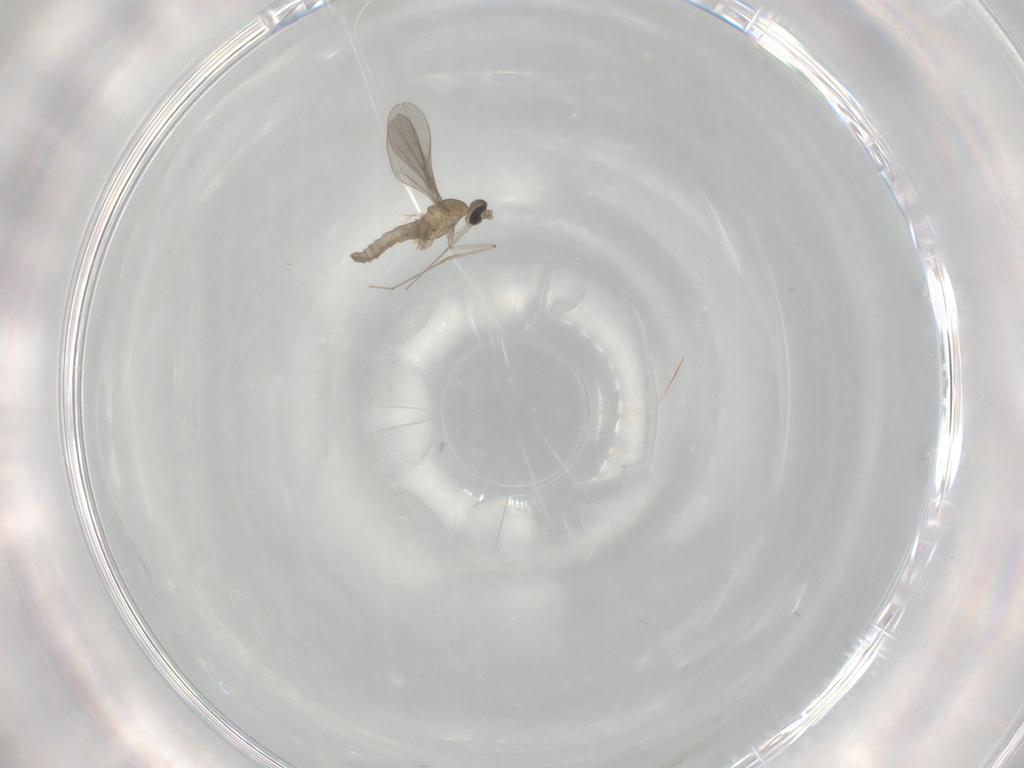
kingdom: Animalia
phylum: Arthropoda
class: Insecta
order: Diptera
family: Cecidomyiidae
